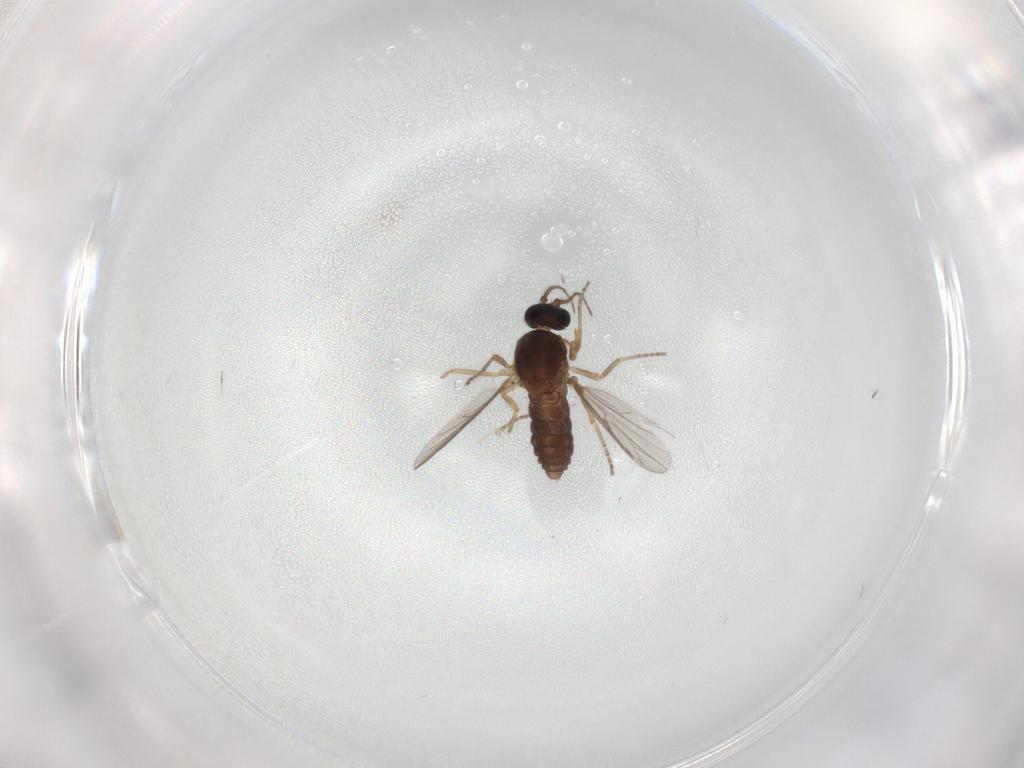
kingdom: Animalia
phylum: Arthropoda
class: Insecta
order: Diptera
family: Ceratopogonidae
